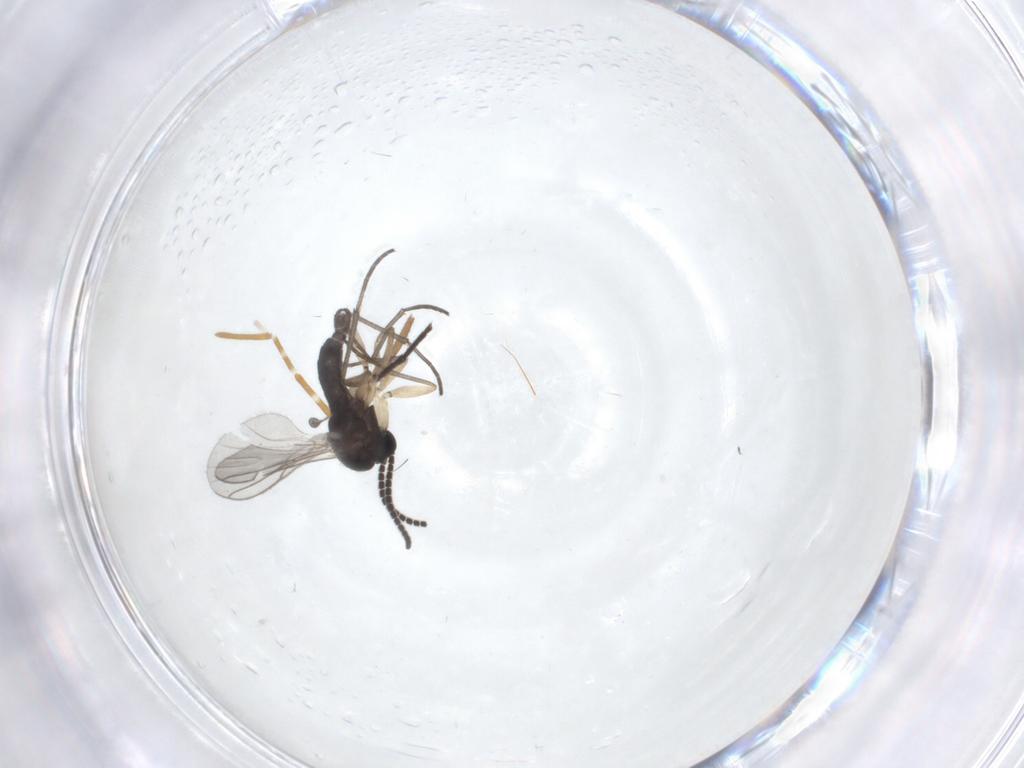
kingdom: Animalia
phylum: Arthropoda
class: Insecta
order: Diptera
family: Sciaridae
